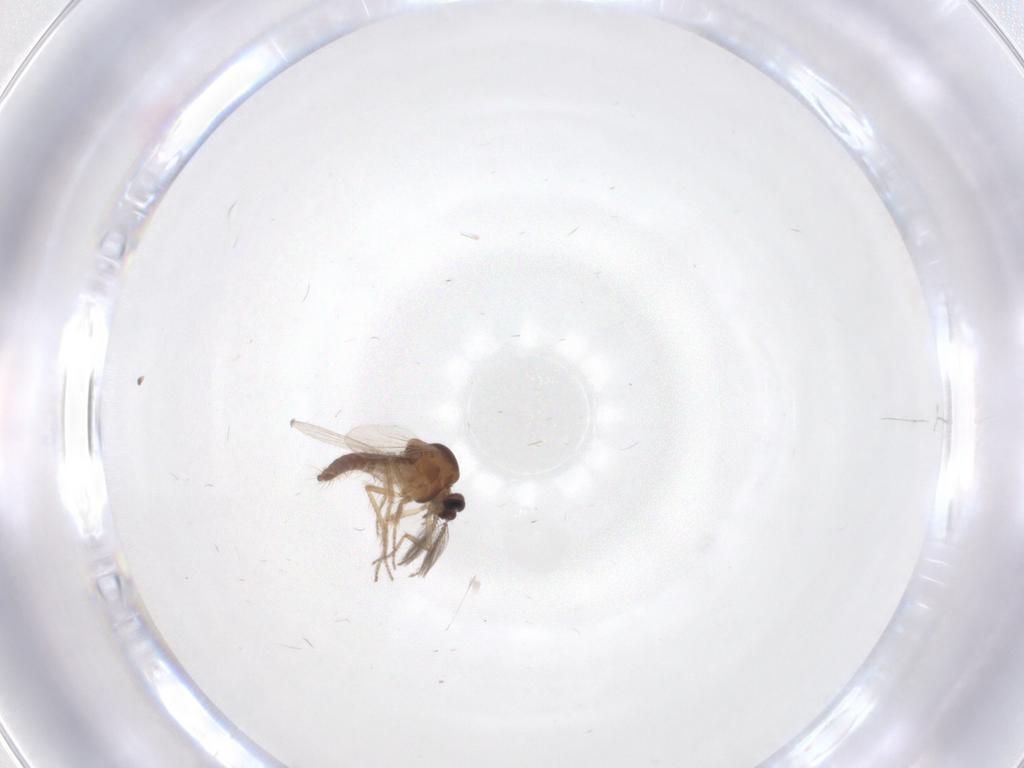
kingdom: Animalia
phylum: Arthropoda
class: Insecta
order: Diptera
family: Ceratopogonidae
